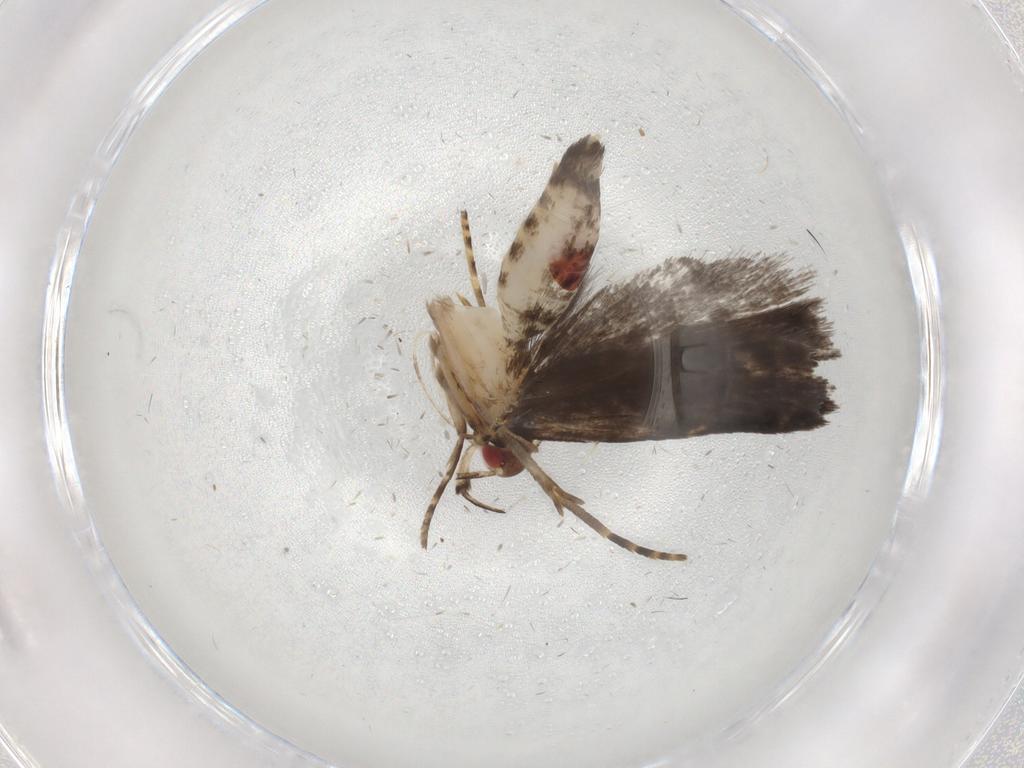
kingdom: Animalia
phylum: Arthropoda
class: Insecta
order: Lepidoptera
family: Gelechiidae
